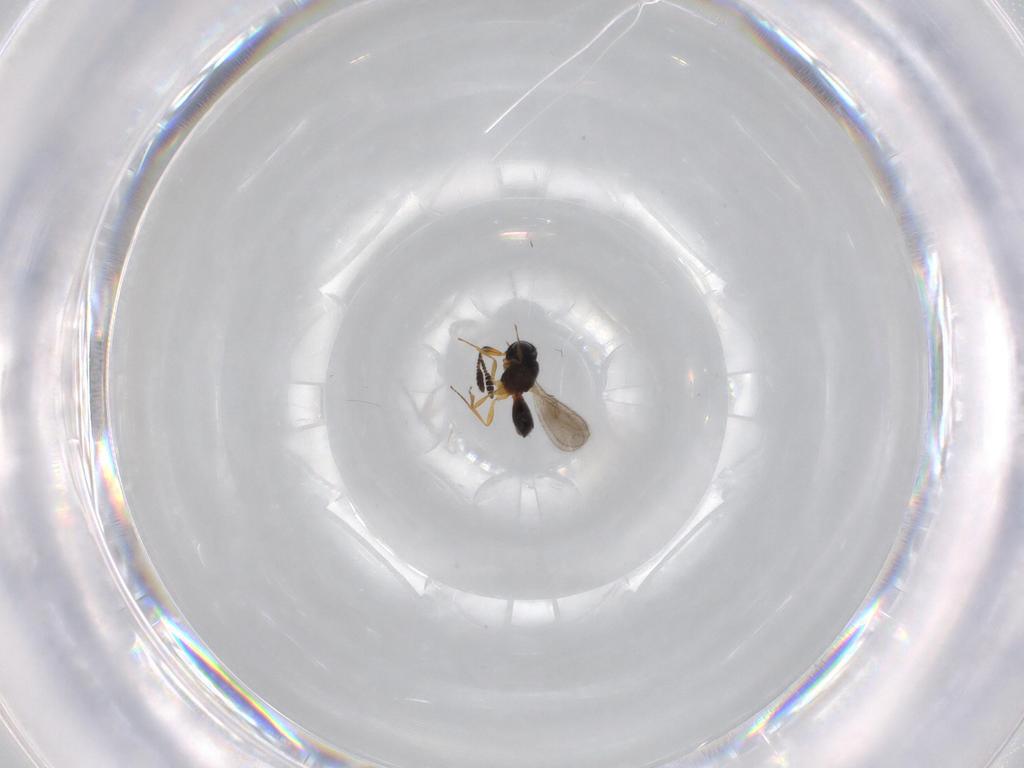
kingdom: Animalia
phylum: Arthropoda
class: Insecta
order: Hymenoptera
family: Scelionidae
